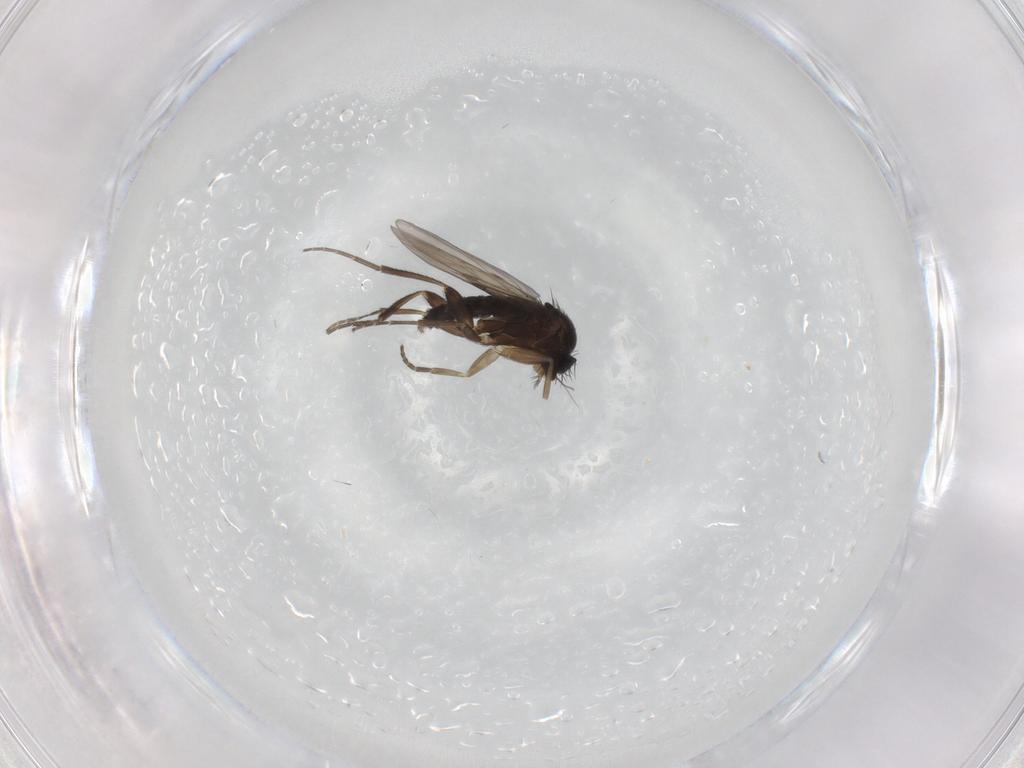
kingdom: Animalia
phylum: Arthropoda
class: Insecta
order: Diptera
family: Phoridae
